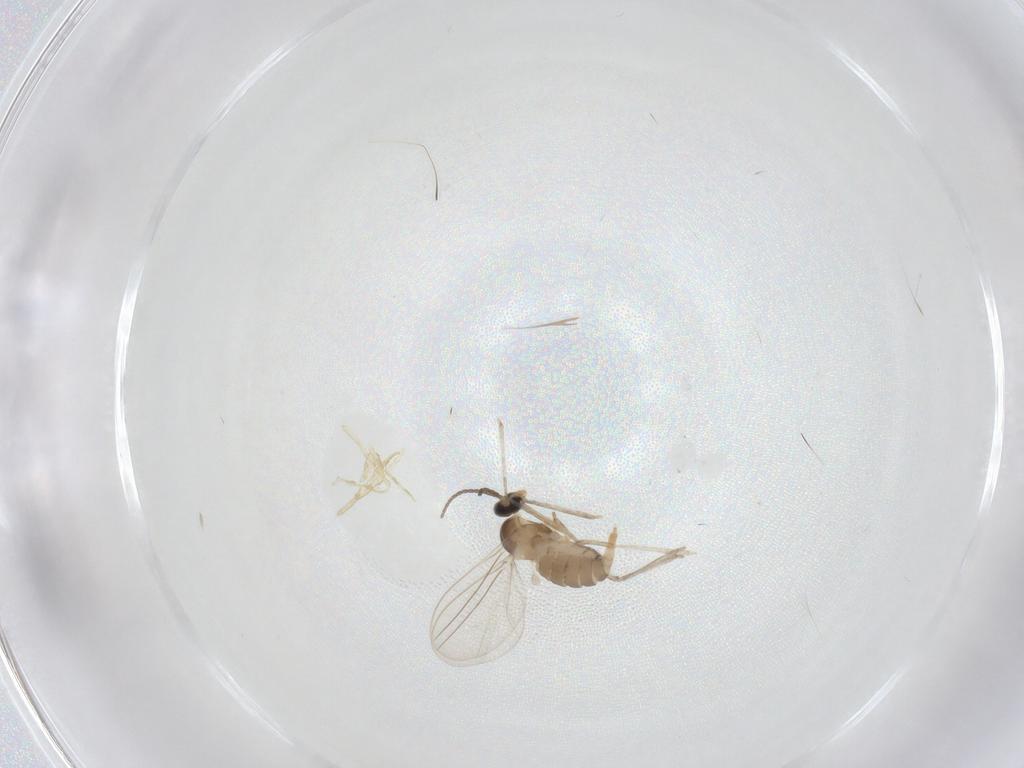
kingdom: Animalia
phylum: Arthropoda
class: Insecta
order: Diptera
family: Cecidomyiidae
